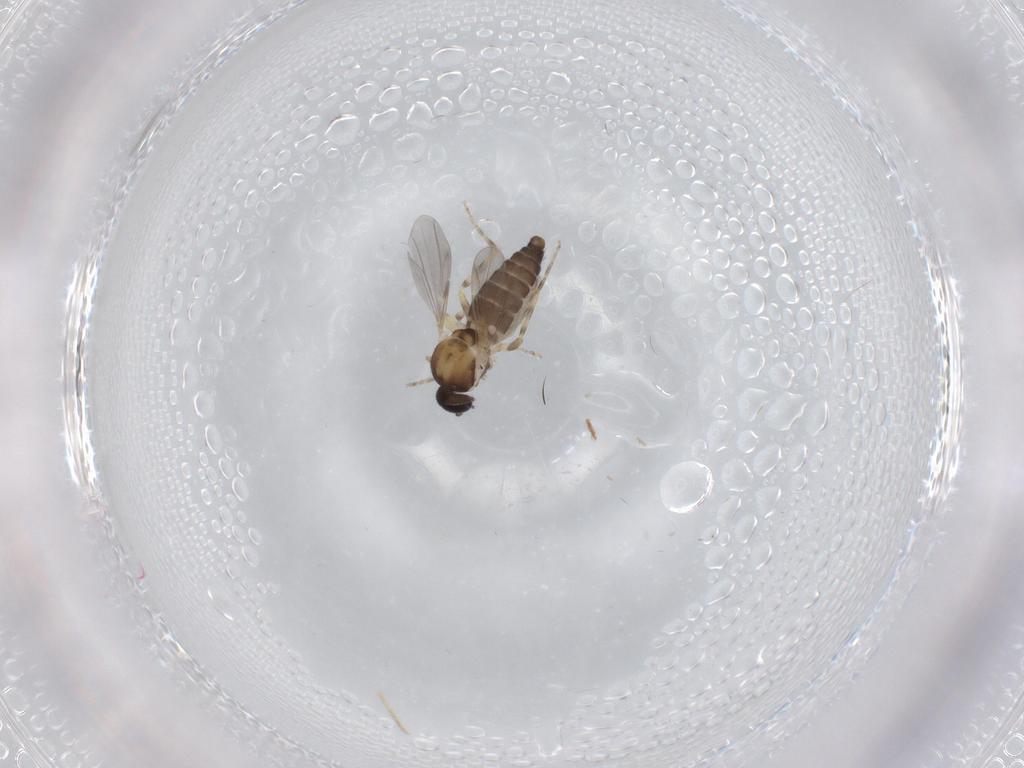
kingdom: Animalia
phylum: Arthropoda
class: Insecta
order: Diptera
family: Ceratopogonidae
